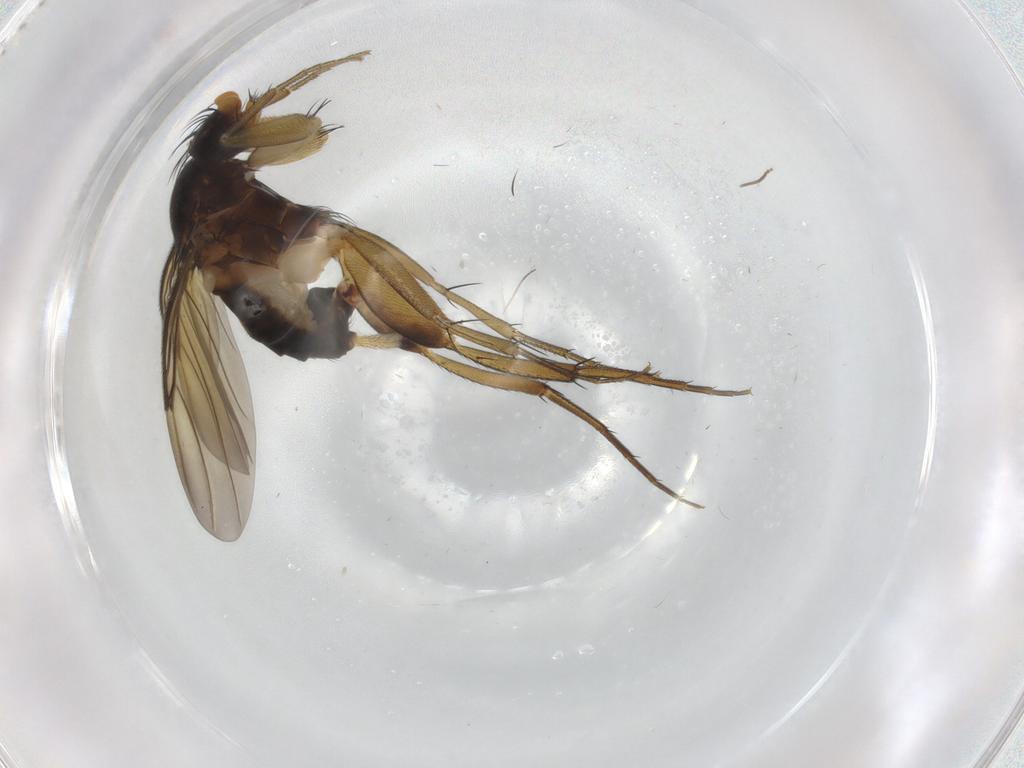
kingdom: Animalia
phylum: Arthropoda
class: Insecta
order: Diptera
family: Phoridae
